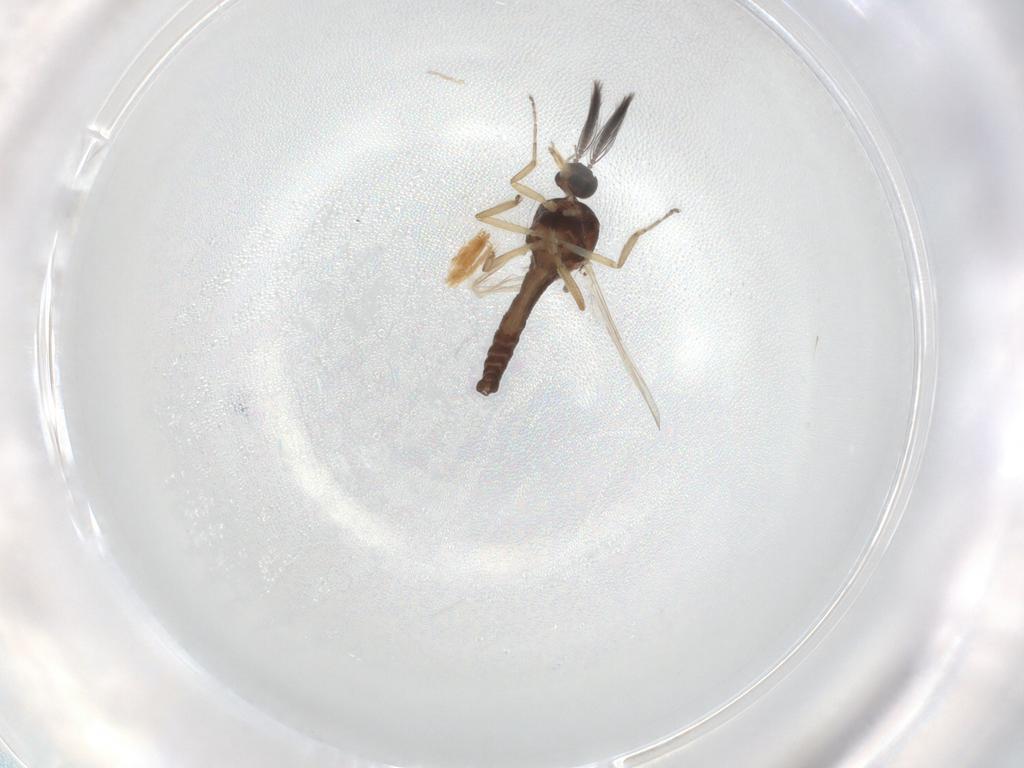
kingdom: Animalia
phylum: Arthropoda
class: Insecta
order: Diptera
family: Ceratopogonidae
